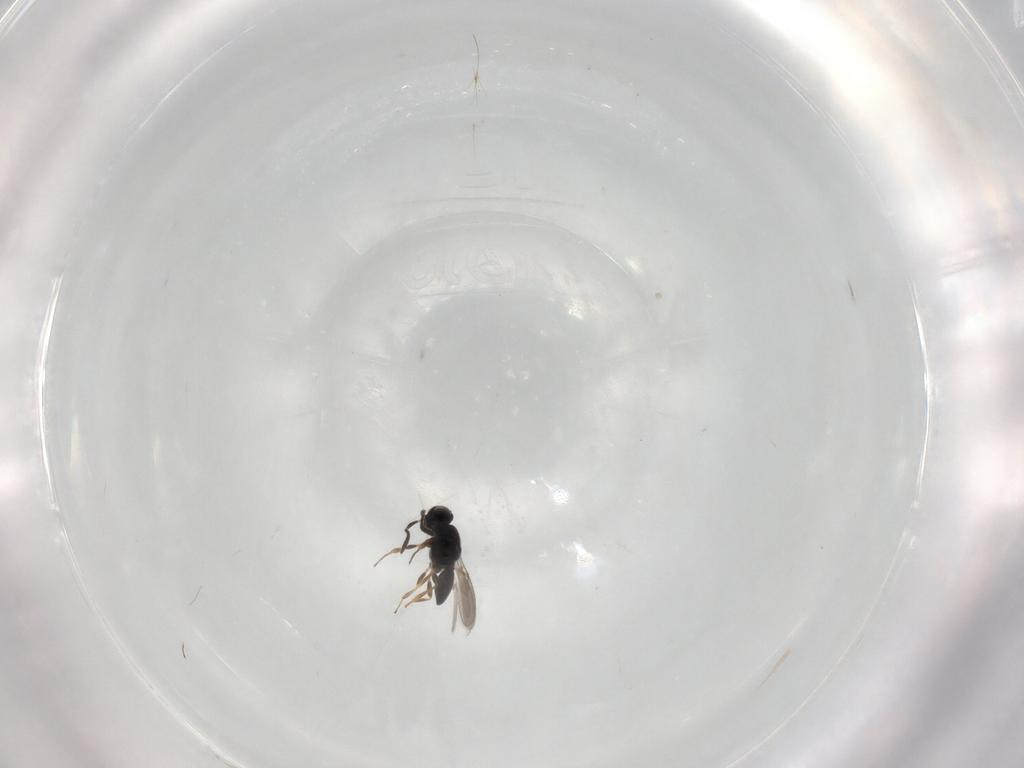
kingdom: Animalia
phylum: Arthropoda
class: Insecta
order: Hymenoptera
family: Scelionidae
